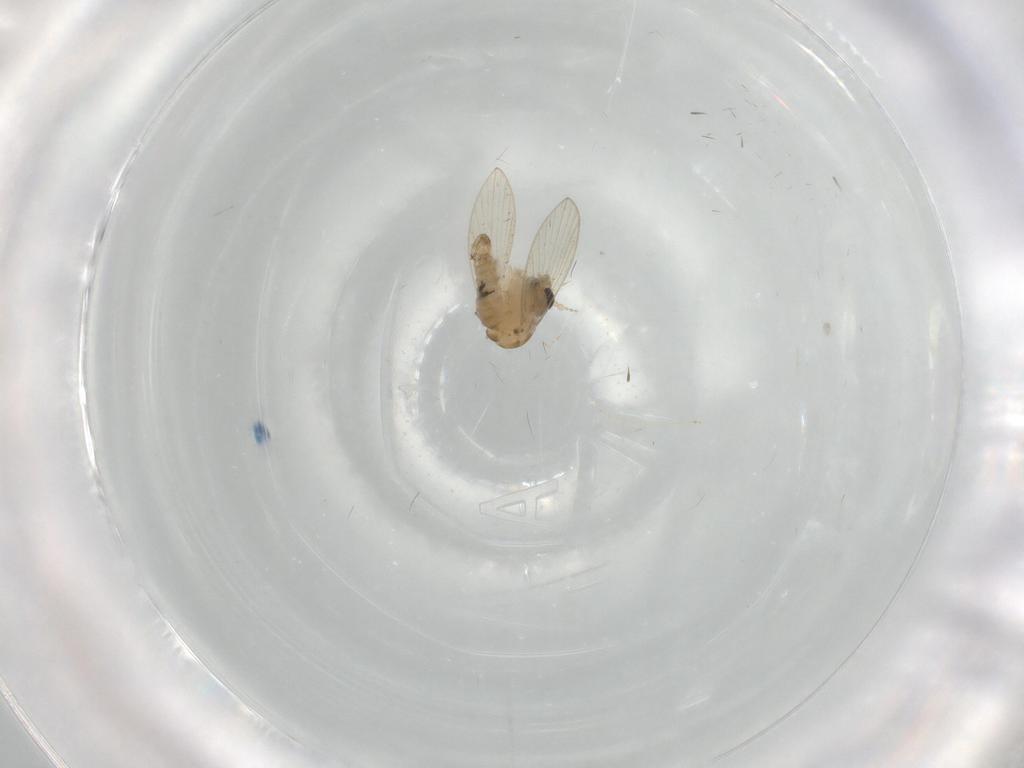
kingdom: Animalia
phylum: Arthropoda
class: Insecta
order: Diptera
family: Psychodidae
